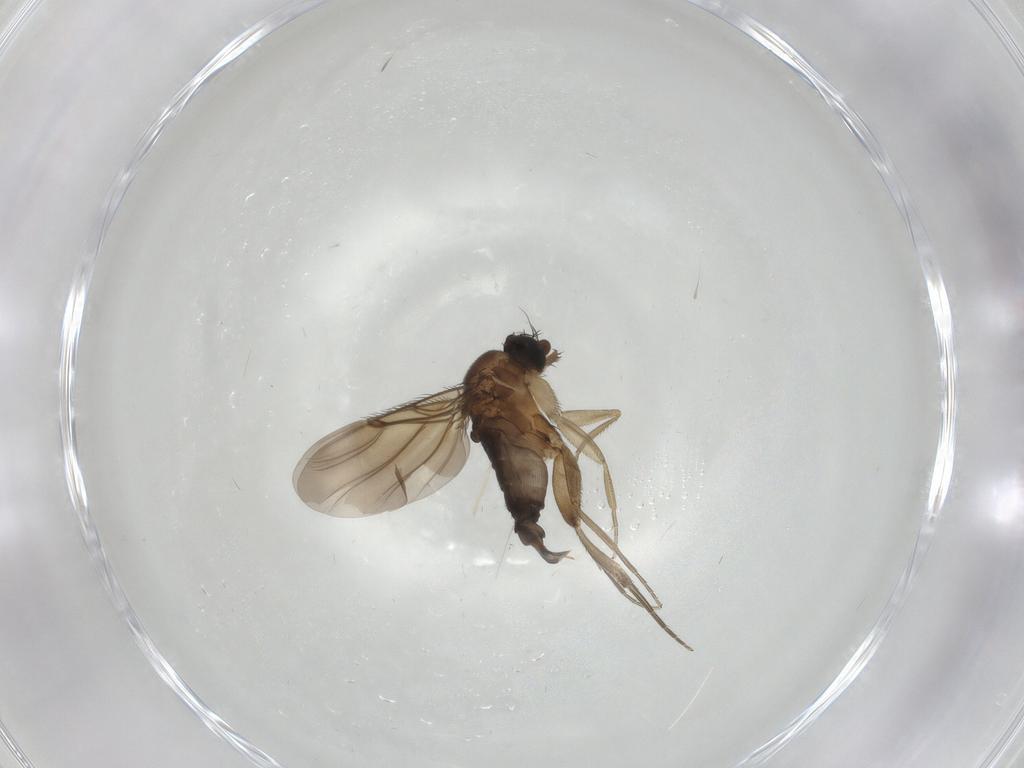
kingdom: Animalia
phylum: Arthropoda
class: Insecta
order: Diptera
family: Phoridae
